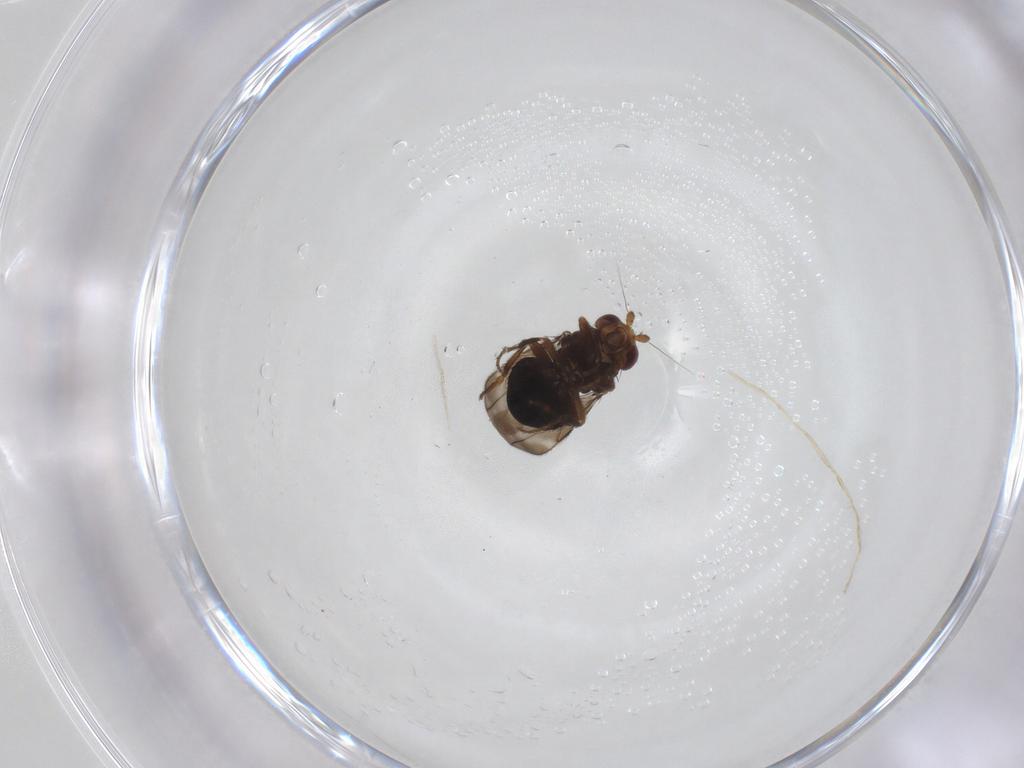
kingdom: Animalia
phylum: Arthropoda
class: Insecta
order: Diptera
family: Sphaeroceridae
